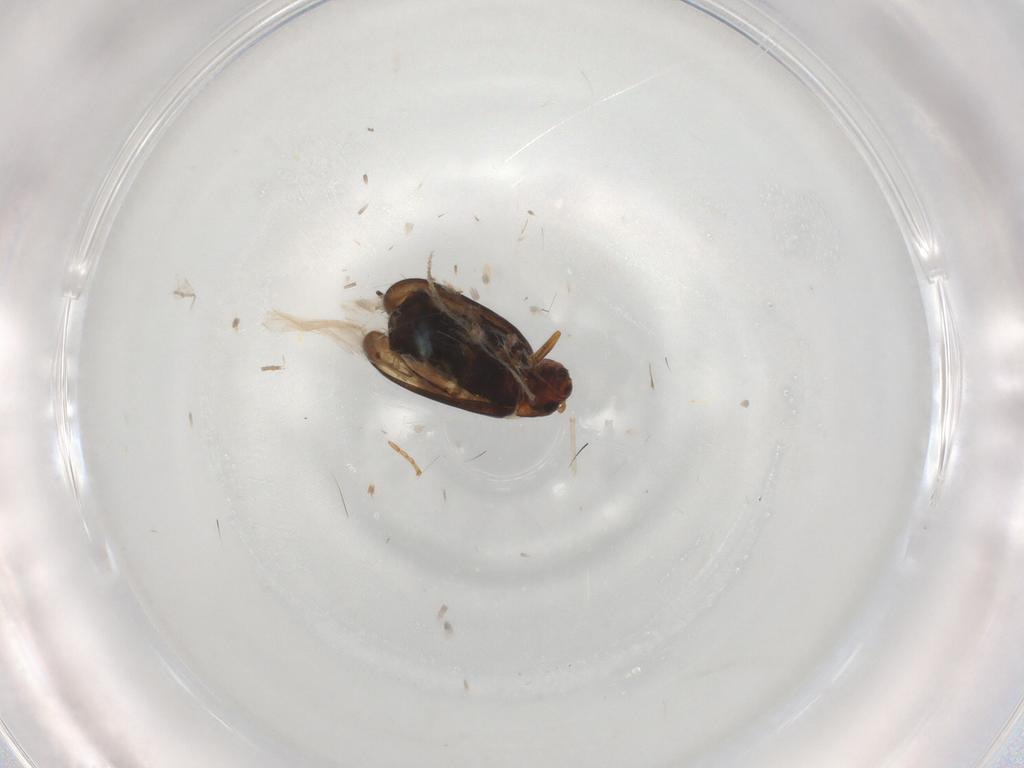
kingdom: Animalia
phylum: Arthropoda
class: Insecta
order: Coleoptera
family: Chrysomelidae
